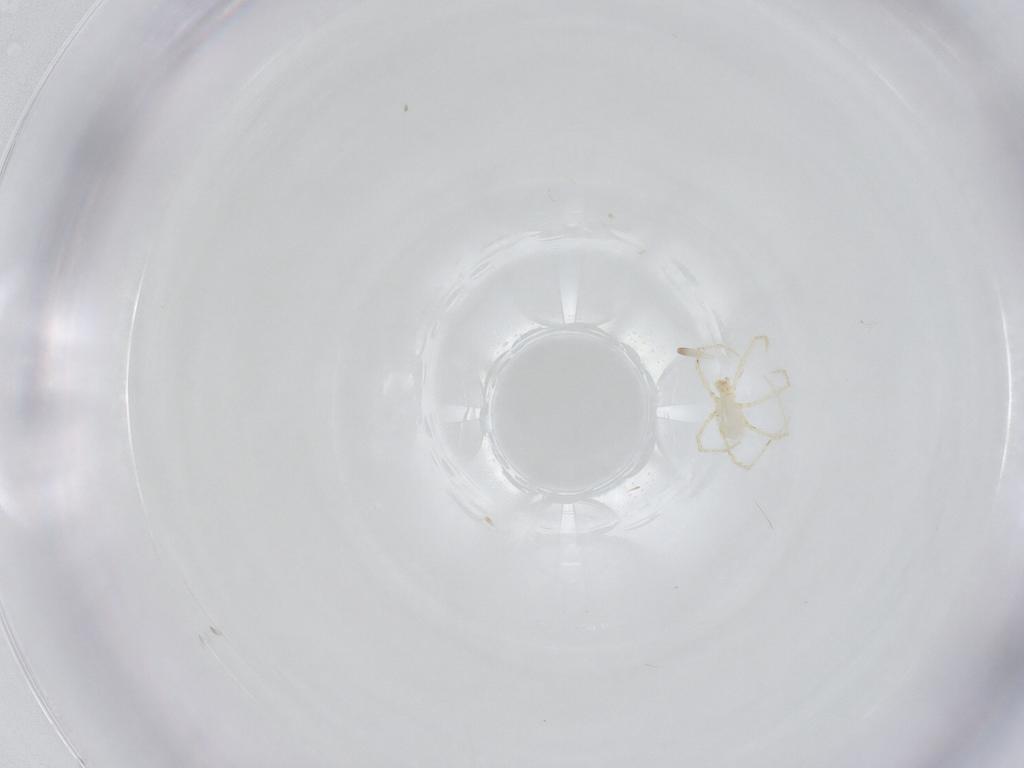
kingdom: Animalia
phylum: Arthropoda
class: Arachnida
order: Trombidiformes
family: Erythraeidae
